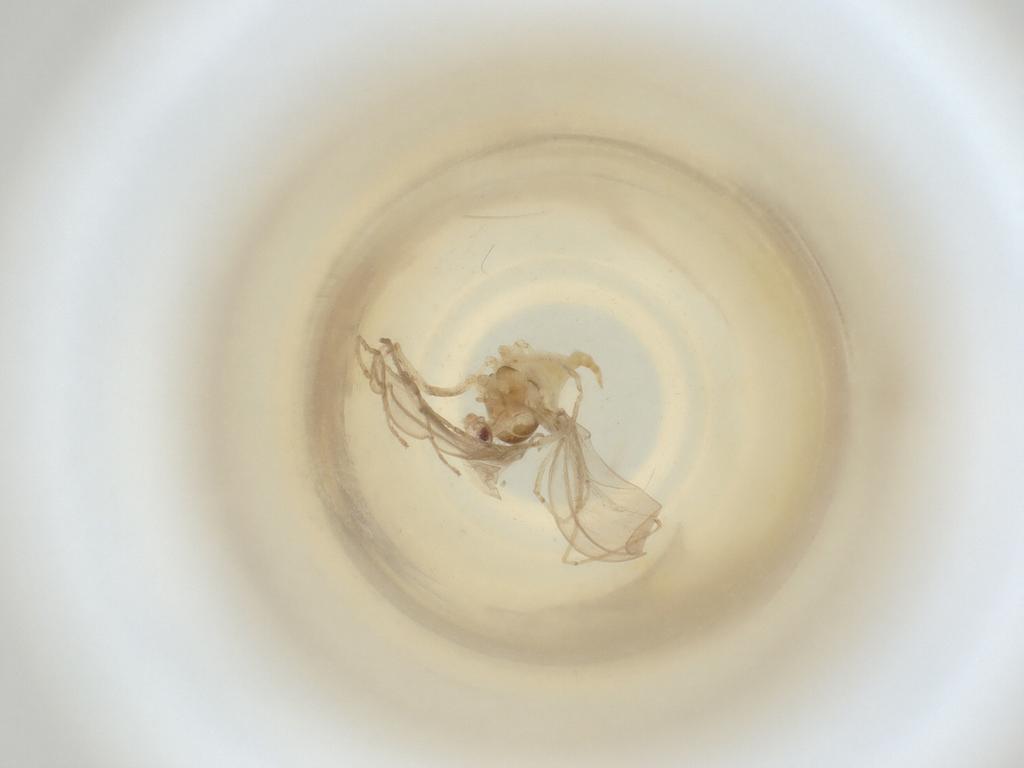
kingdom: Animalia
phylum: Arthropoda
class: Insecta
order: Diptera
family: Cecidomyiidae
